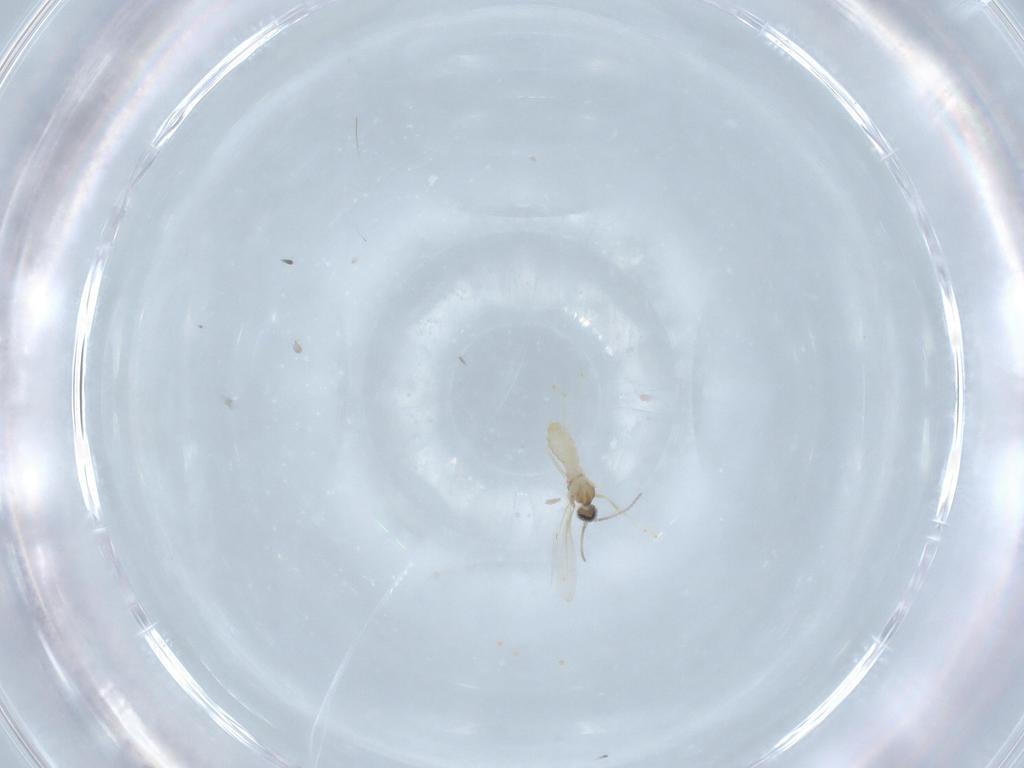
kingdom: Animalia
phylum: Arthropoda
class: Insecta
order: Diptera
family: Cecidomyiidae
